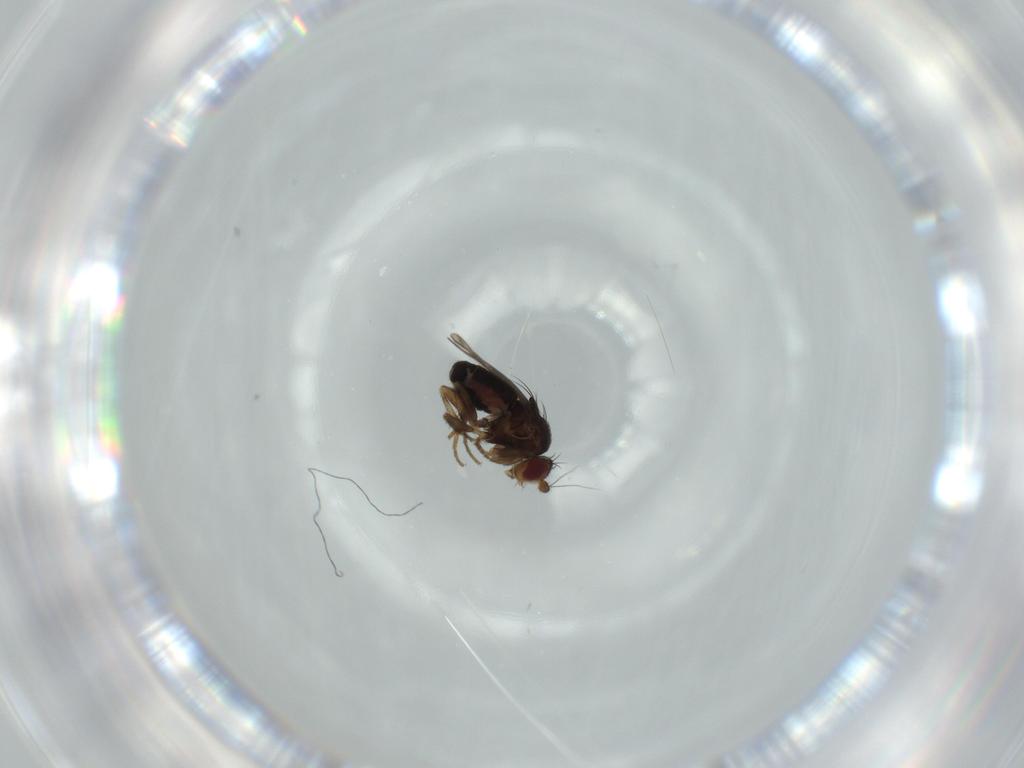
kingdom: Animalia
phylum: Arthropoda
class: Insecta
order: Diptera
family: Sphaeroceridae
